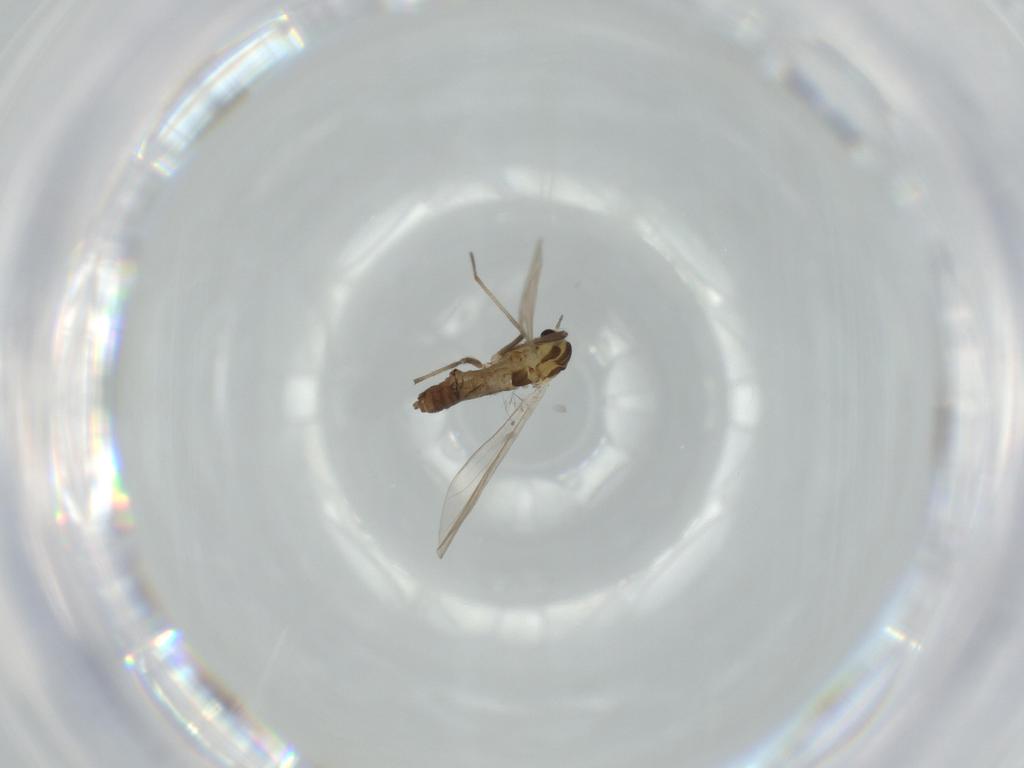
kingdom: Animalia
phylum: Arthropoda
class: Insecta
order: Diptera
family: Chironomidae
